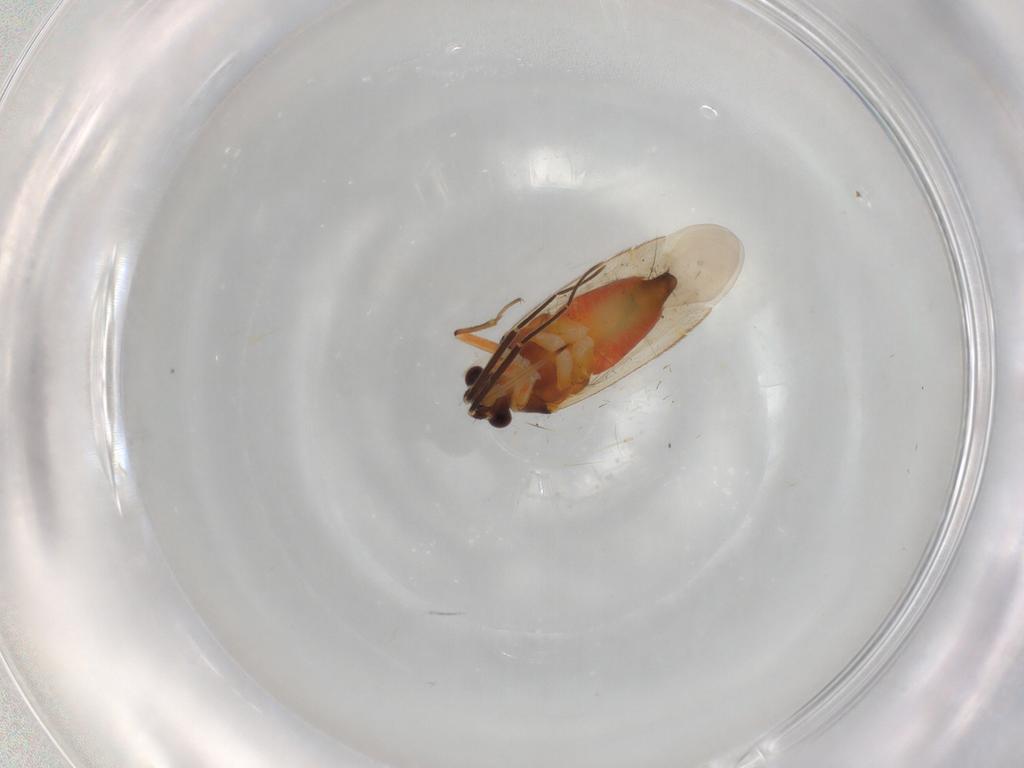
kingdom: Animalia
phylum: Arthropoda
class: Insecta
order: Hemiptera
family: Miridae
